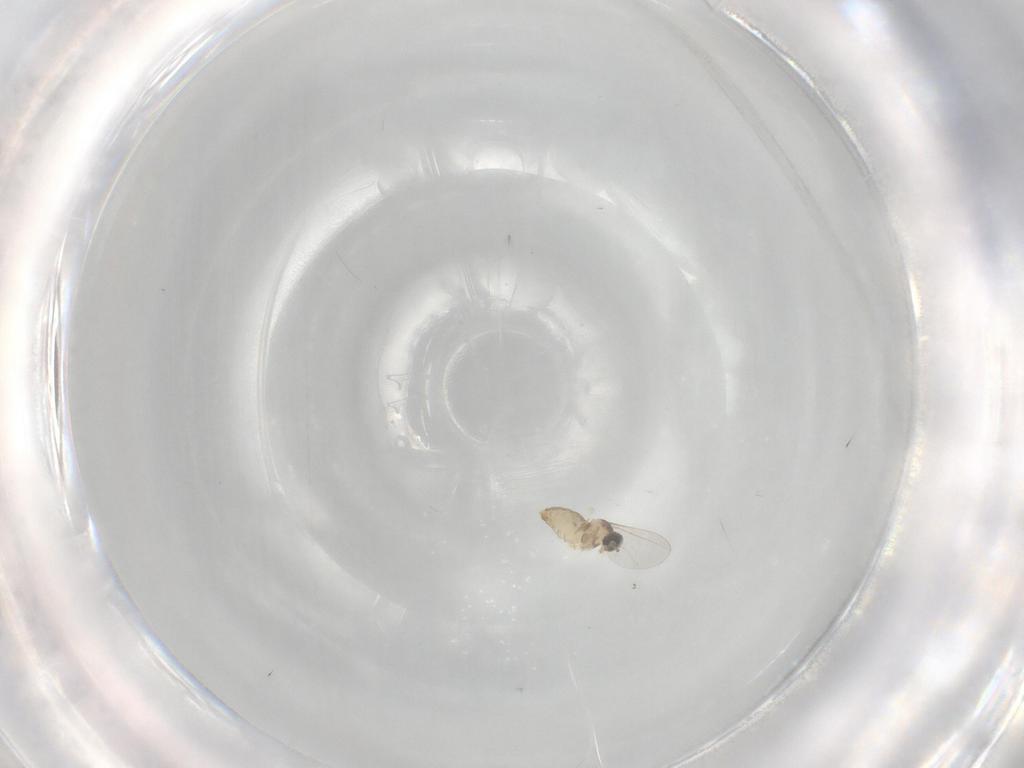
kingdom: Animalia
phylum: Arthropoda
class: Insecta
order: Diptera
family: Cecidomyiidae
